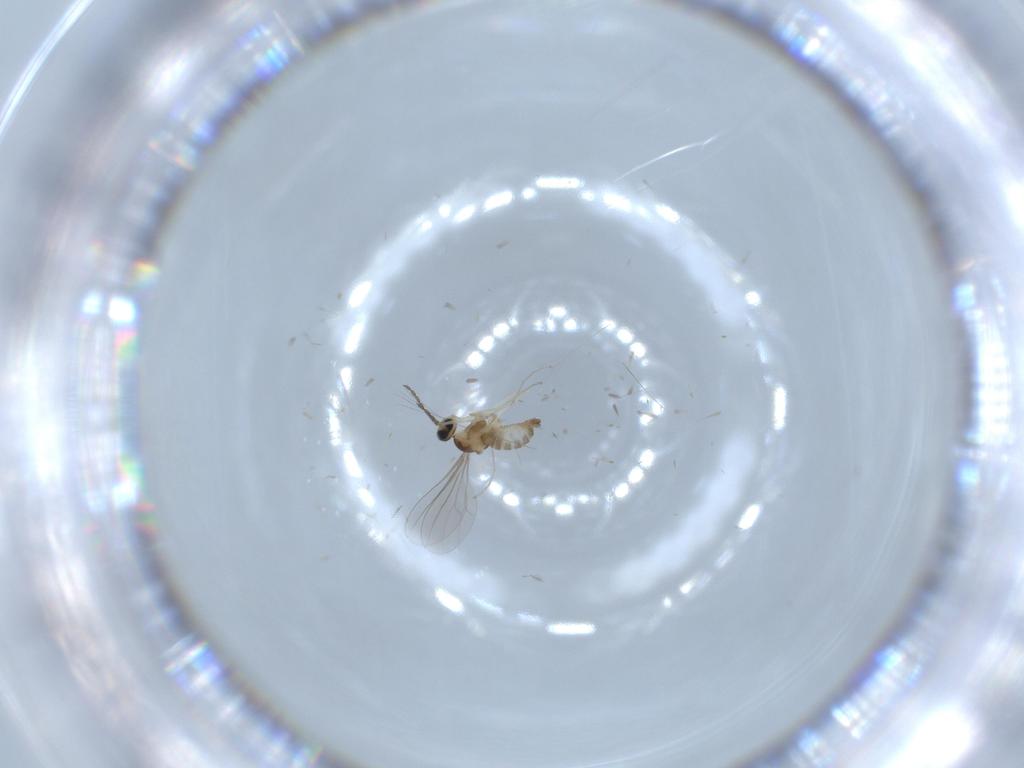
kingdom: Animalia
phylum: Arthropoda
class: Insecta
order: Diptera
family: Cecidomyiidae
